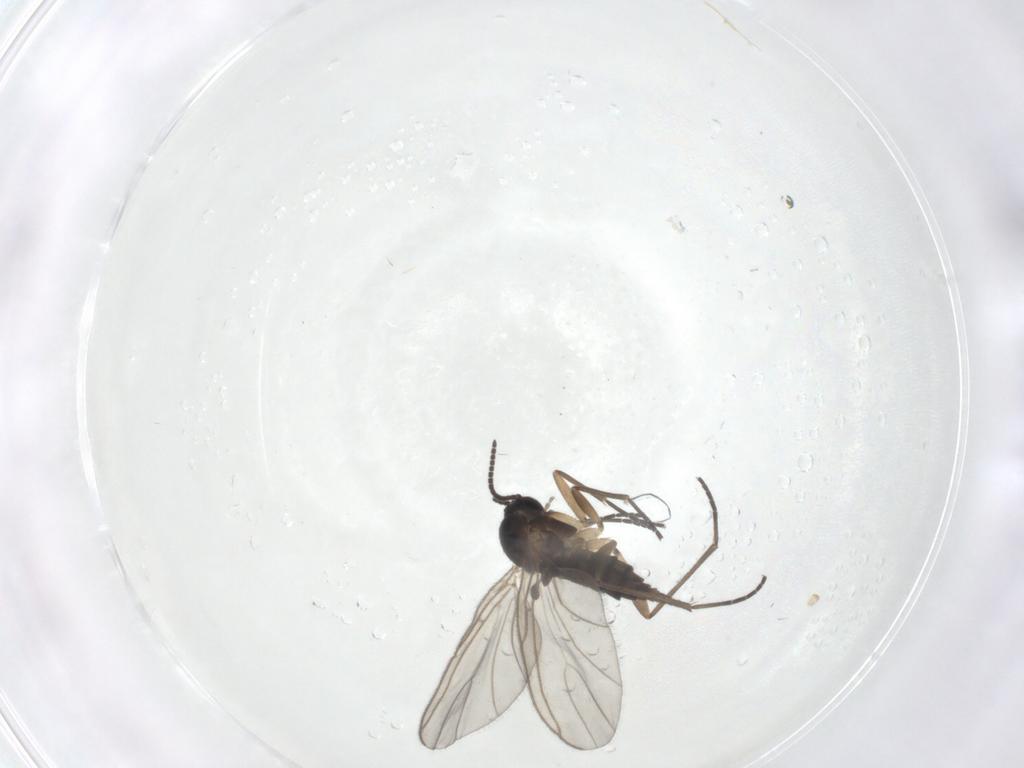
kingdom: Animalia
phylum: Arthropoda
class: Insecta
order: Diptera
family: Sciaridae
